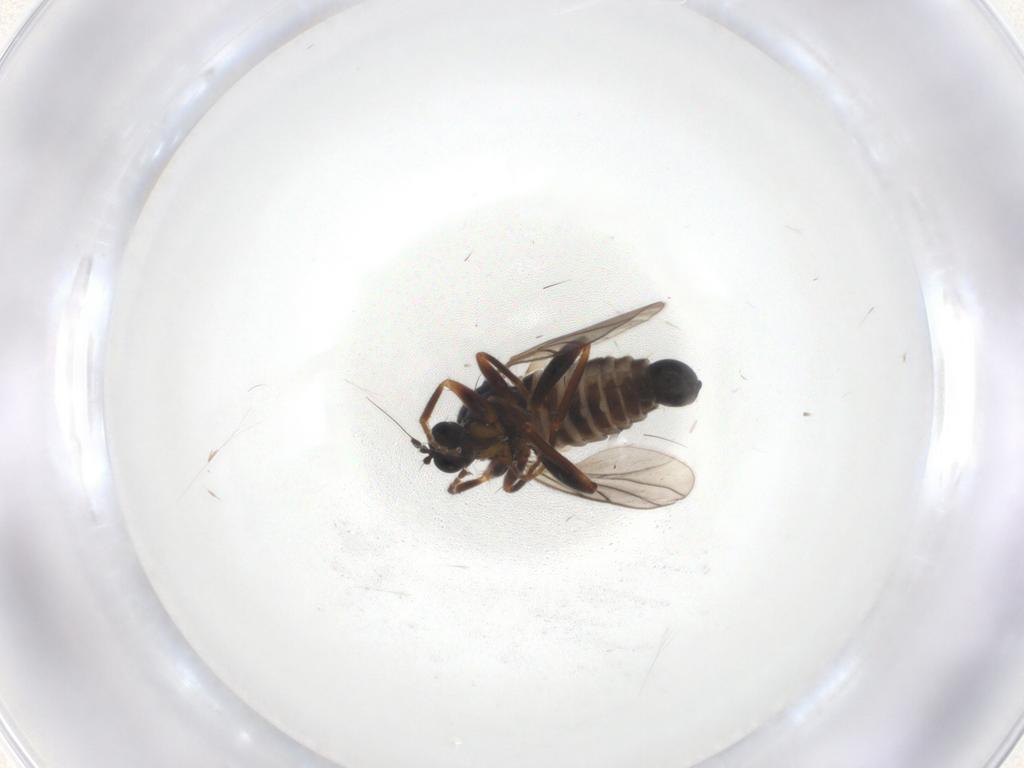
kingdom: Animalia
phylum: Arthropoda
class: Insecta
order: Diptera
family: Hybotidae
